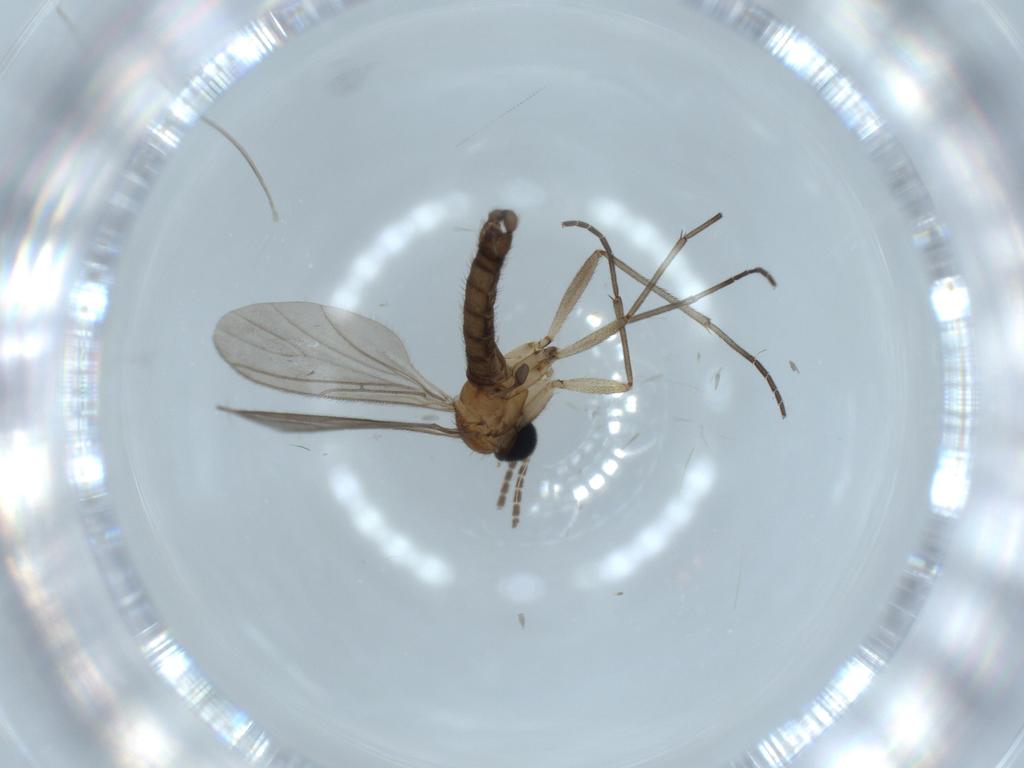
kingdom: Animalia
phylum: Arthropoda
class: Insecta
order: Diptera
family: Sciaridae
